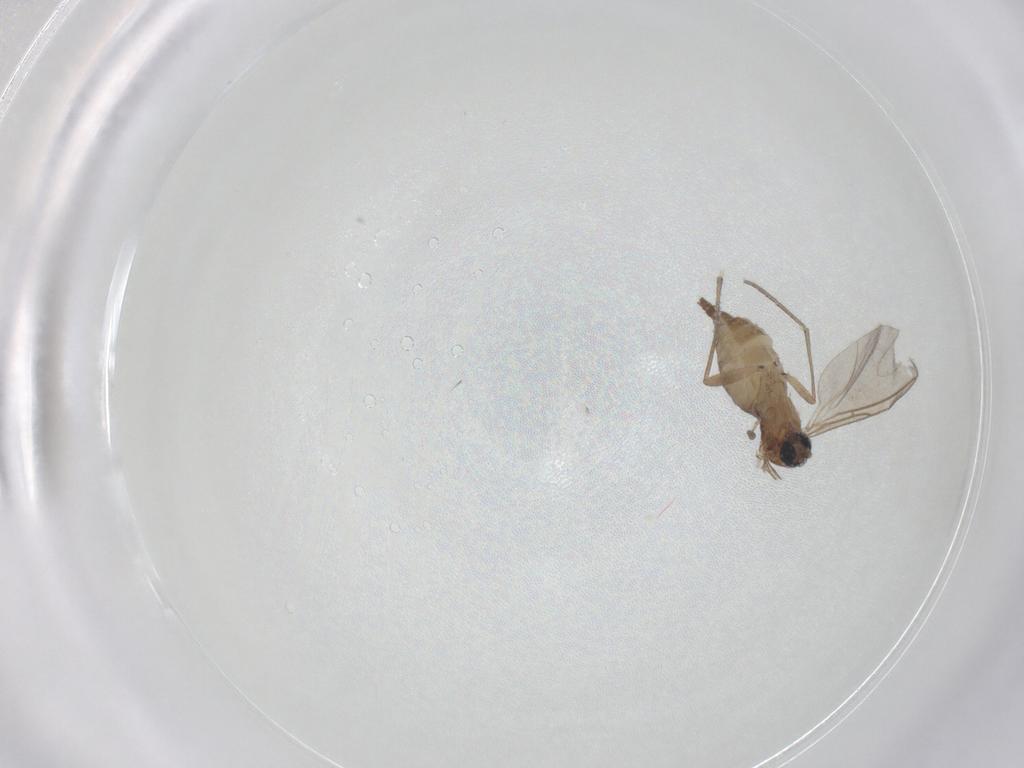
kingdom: Animalia
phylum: Arthropoda
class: Insecta
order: Diptera
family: Sciaridae
